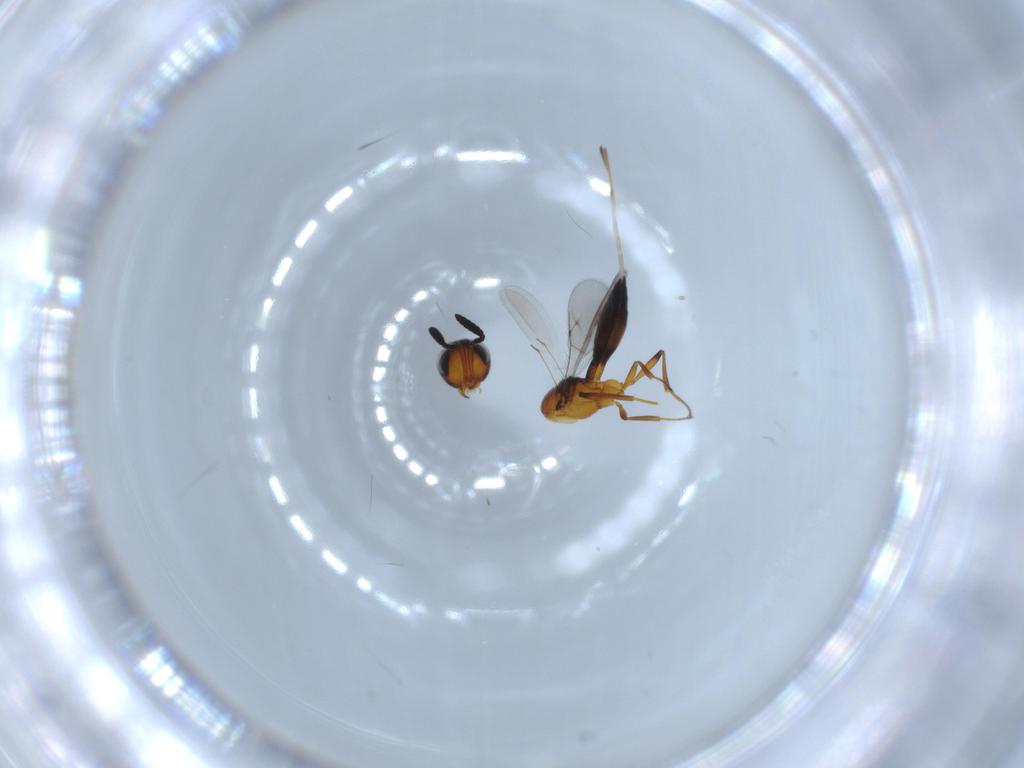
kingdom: Animalia
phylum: Arthropoda
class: Insecta
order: Hymenoptera
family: Scelionidae
